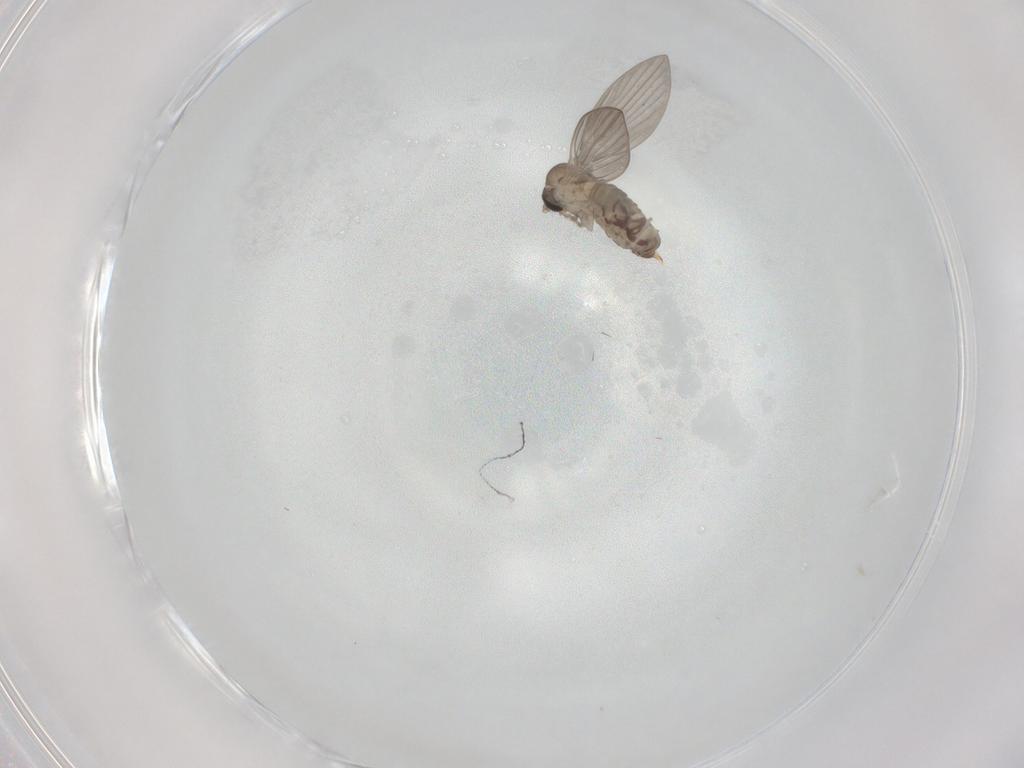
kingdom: Animalia
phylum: Arthropoda
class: Insecta
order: Diptera
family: Psychodidae
